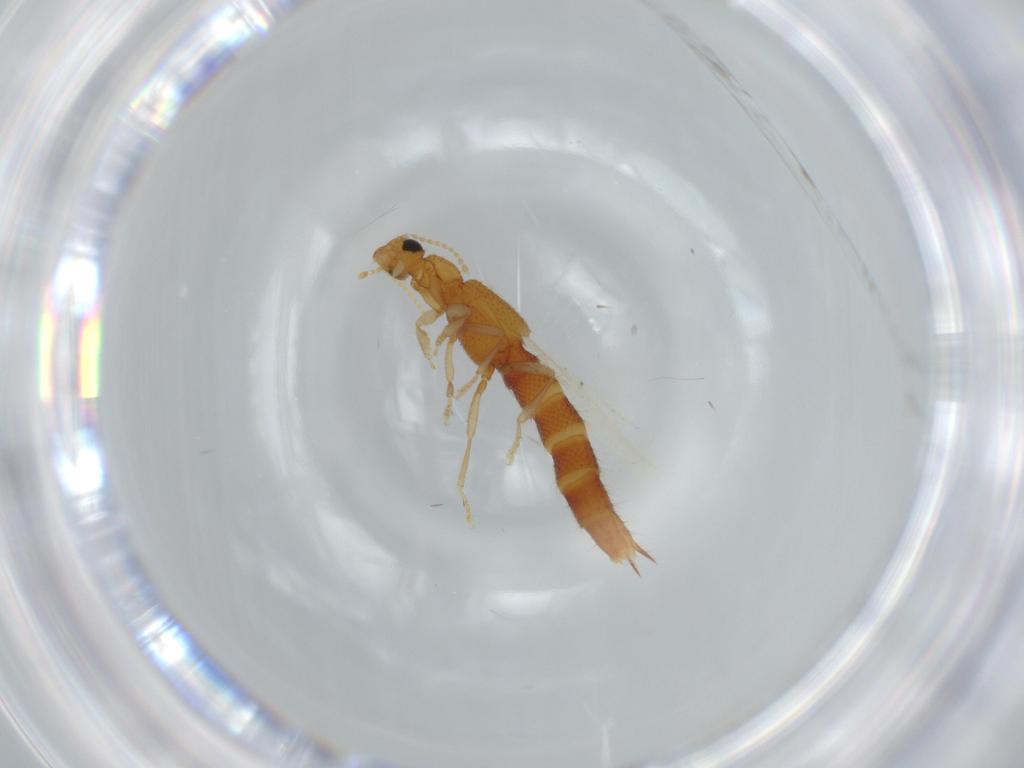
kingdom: Animalia
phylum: Arthropoda
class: Insecta
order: Coleoptera
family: Staphylinidae
